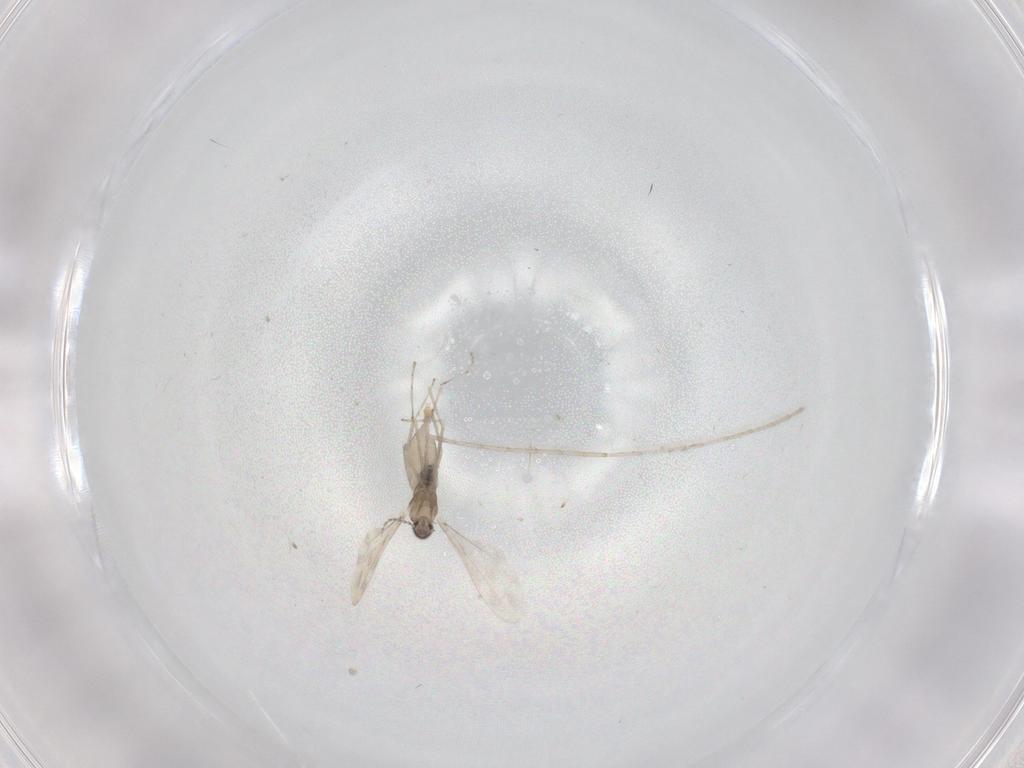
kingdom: Animalia
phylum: Arthropoda
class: Insecta
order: Diptera
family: Cecidomyiidae
